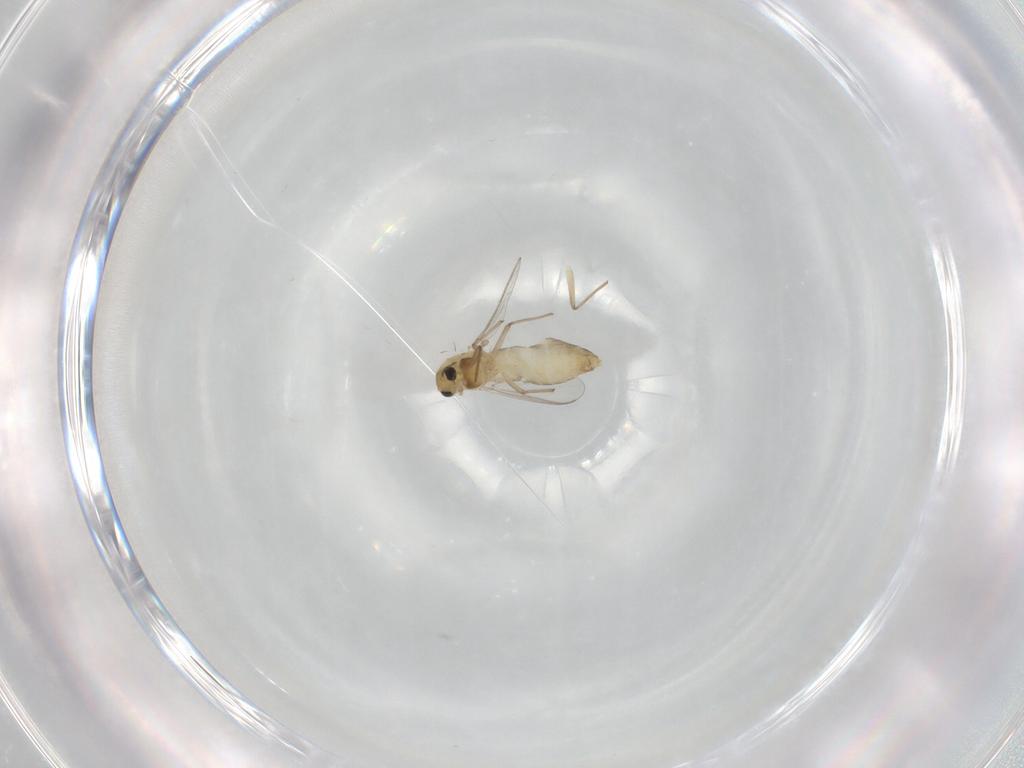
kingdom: Animalia
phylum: Arthropoda
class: Insecta
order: Diptera
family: Chironomidae
